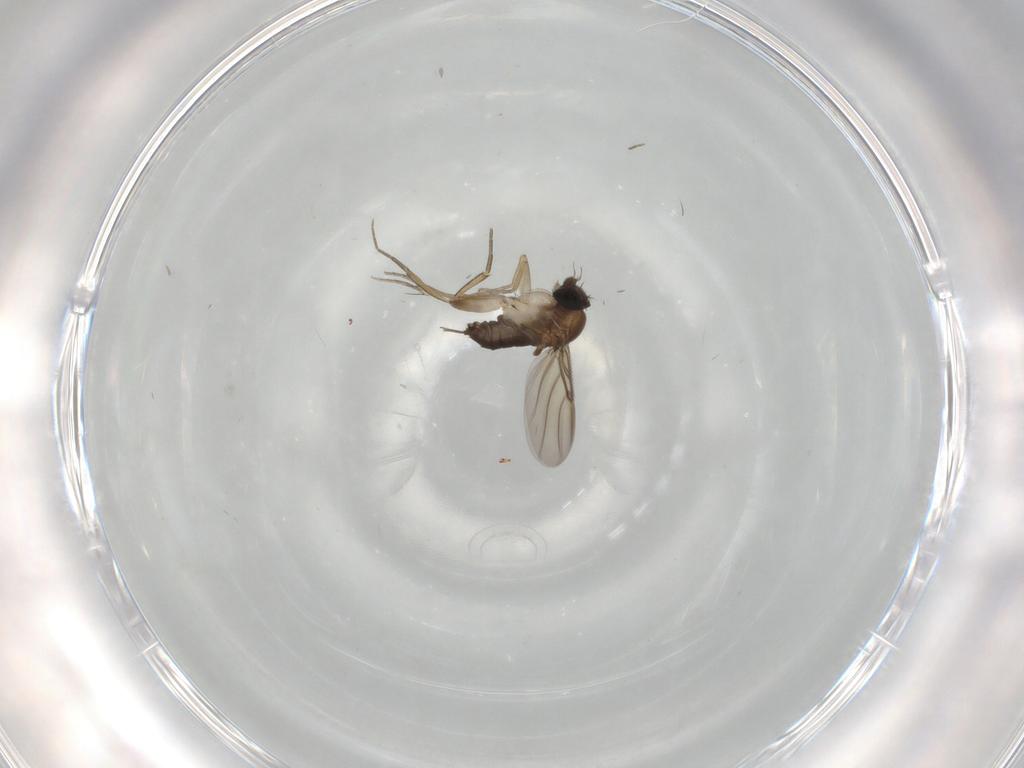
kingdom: Animalia
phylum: Arthropoda
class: Insecta
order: Diptera
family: Phoridae
